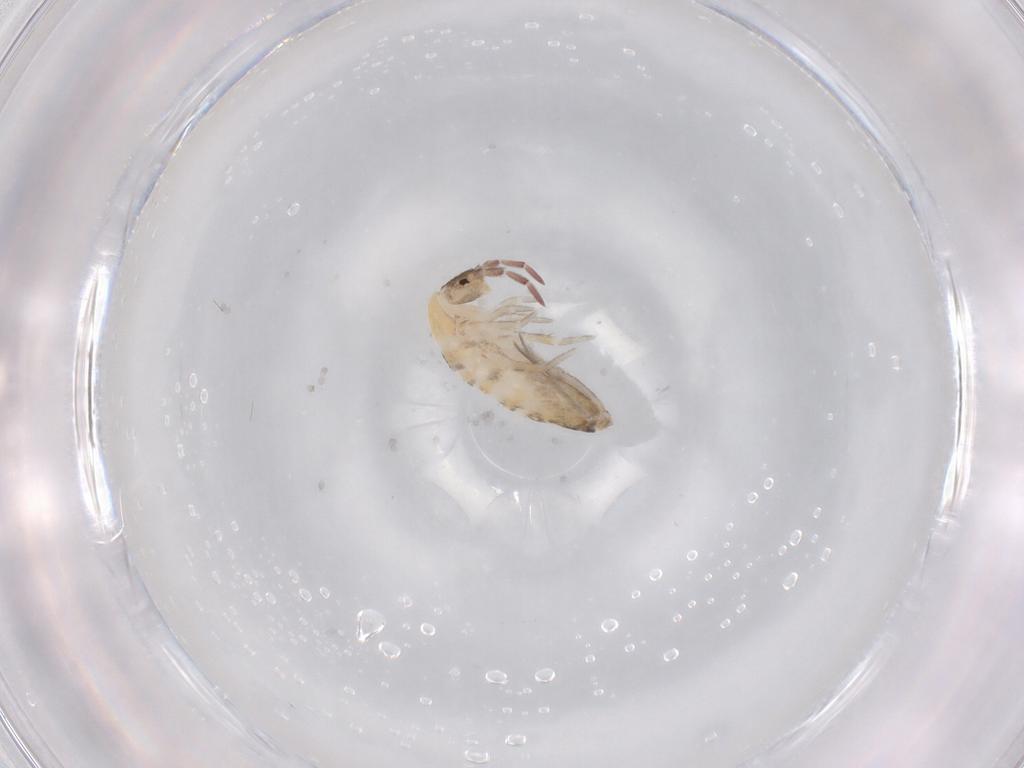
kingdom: Animalia
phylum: Arthropoda
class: Collembola
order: Entomobryomorpha
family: Entomobryidae
